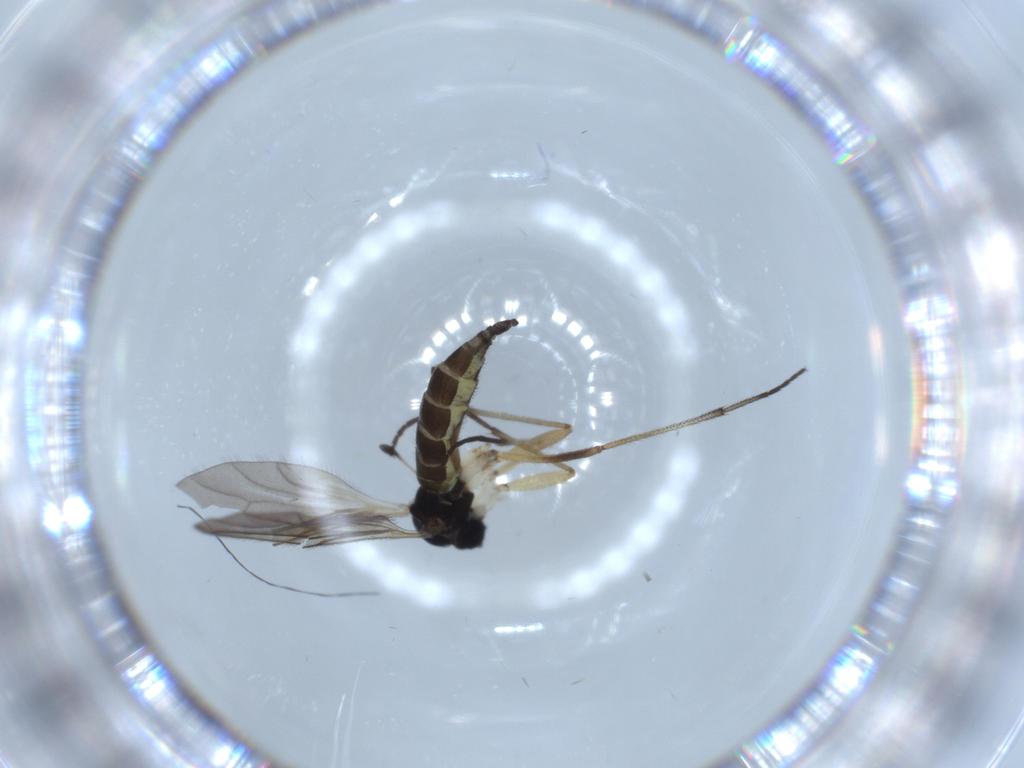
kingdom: Animalia
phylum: Arthropoda
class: Insecta
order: Diptera
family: Sciaridae
